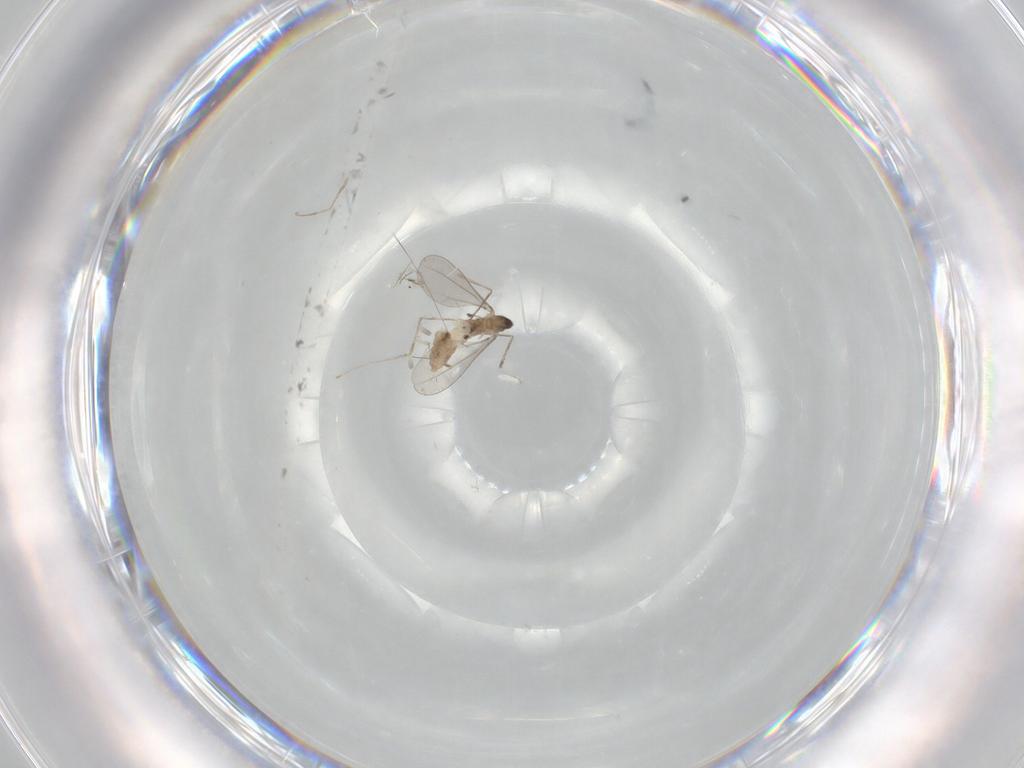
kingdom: Animalia
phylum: Arthropoda
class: Insecta
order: Diptera
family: Cecidomyiidae
